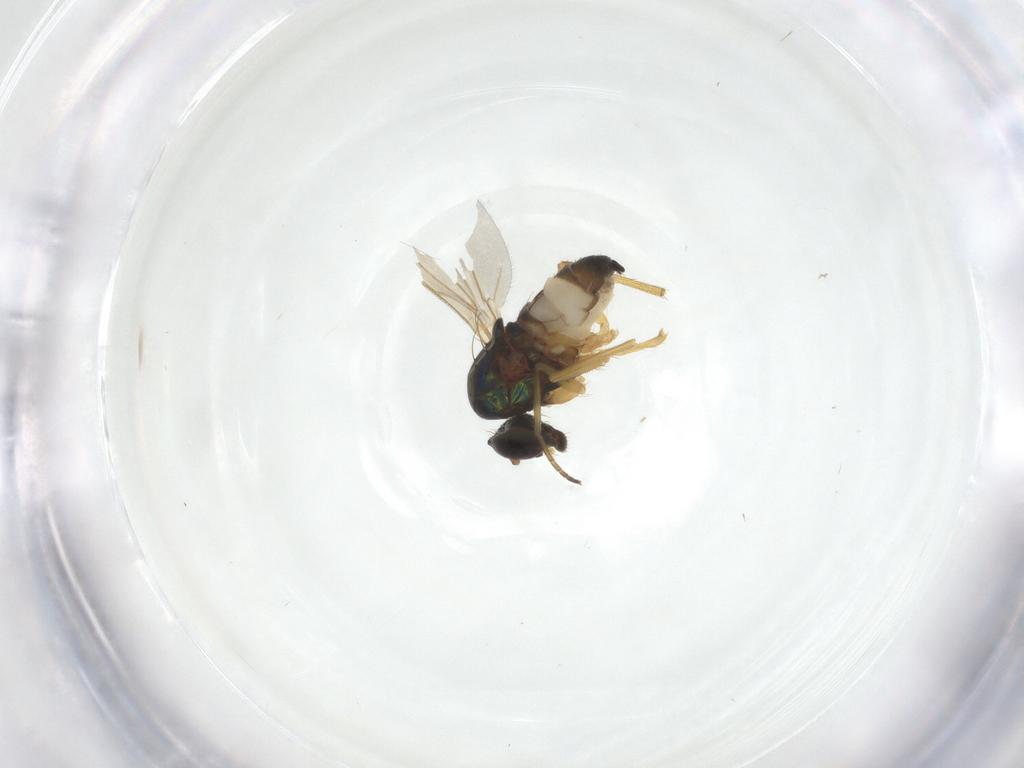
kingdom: Animalia
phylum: Arthropoda
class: Insecta
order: Diptera
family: Dolichopodidae
